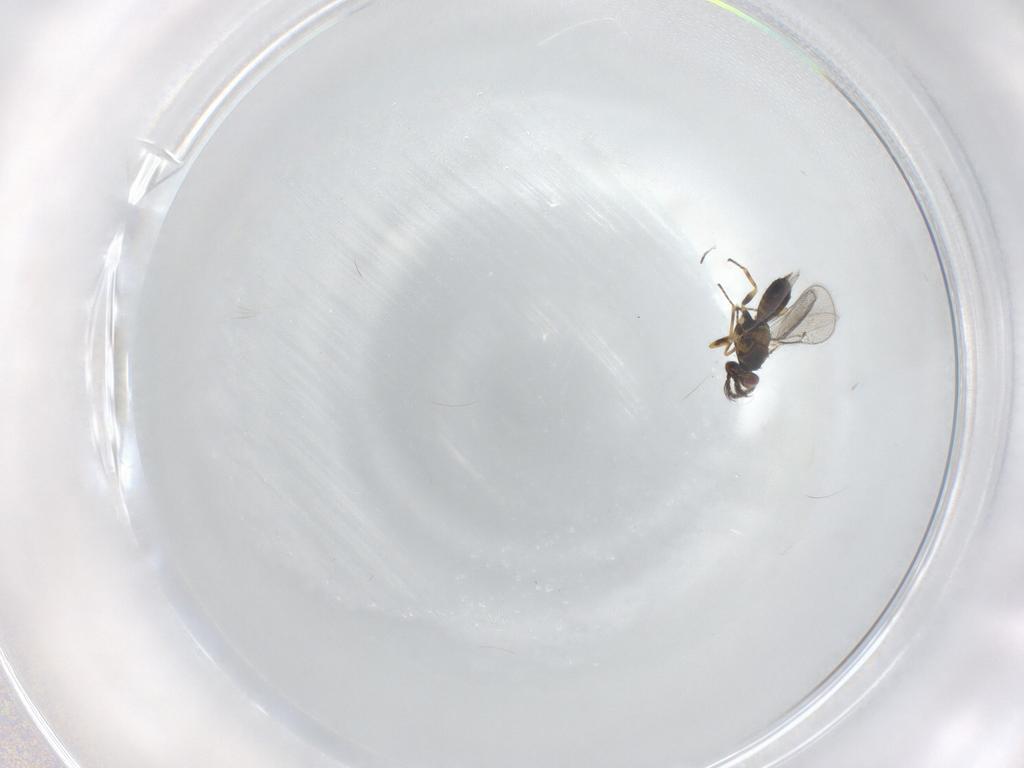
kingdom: Animalia
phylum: Arthropoda
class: Insecta
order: Hymenoptera
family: Eulophidae
